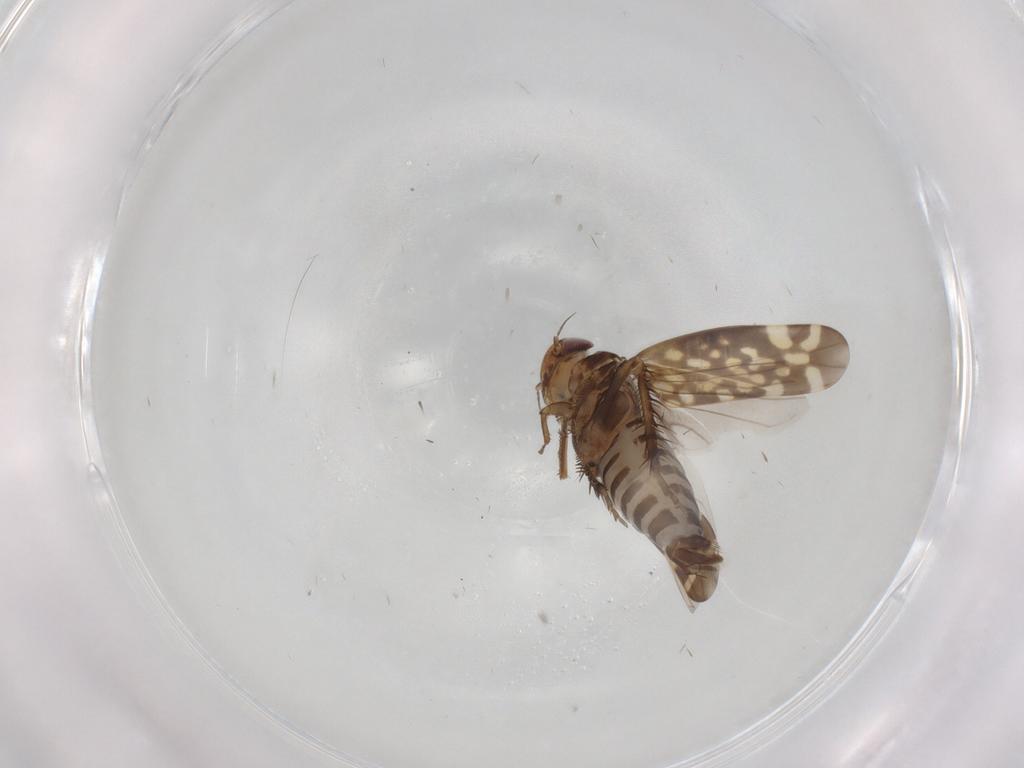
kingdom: Animalia
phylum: Arthropoda
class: Insecta
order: Hemiptera
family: Cicadellidae
